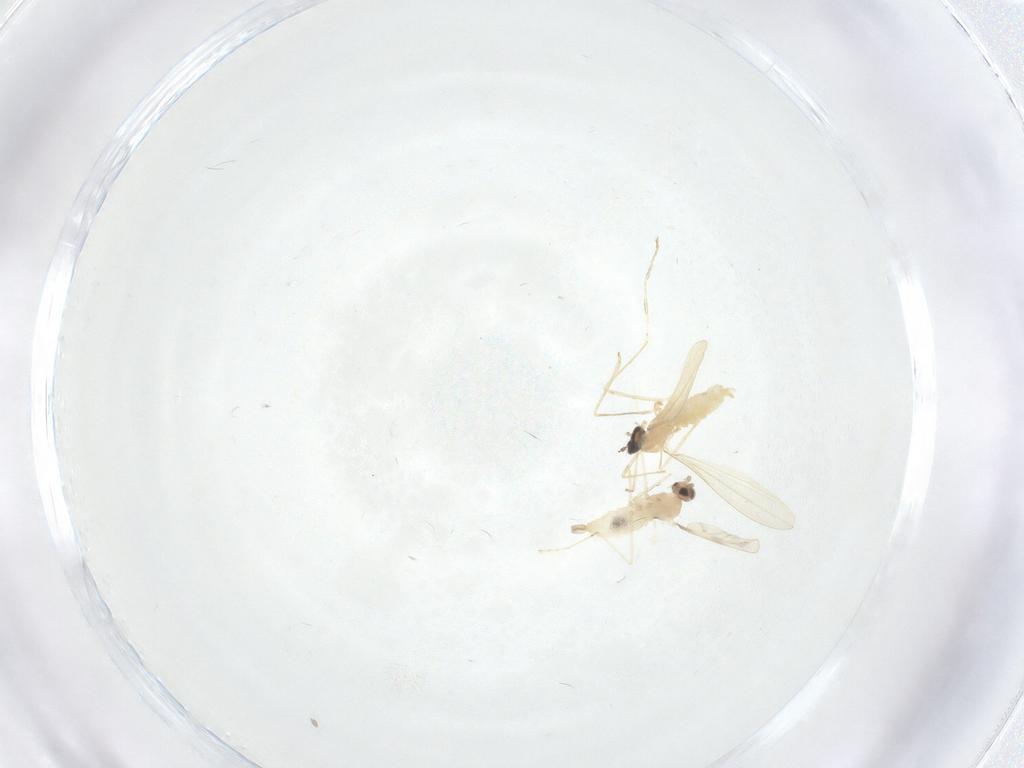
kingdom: Animalia
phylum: Arthropoda
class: Insecta
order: Diptera
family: Cecidomyiidae
